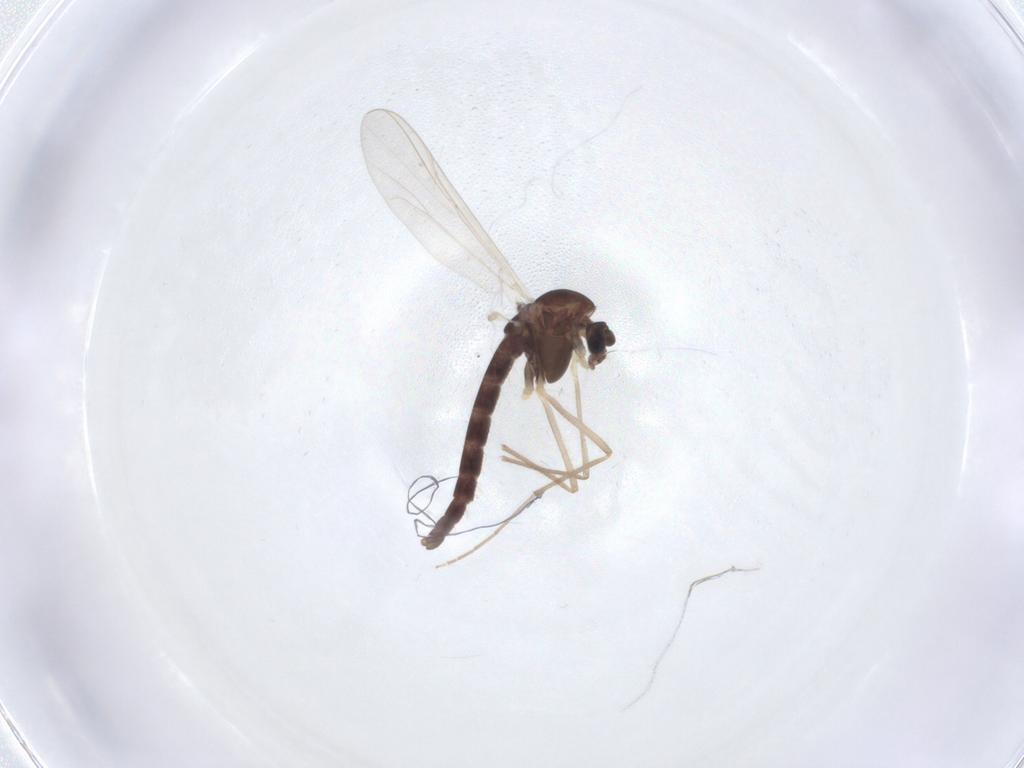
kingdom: Animalia
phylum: Arthropoda
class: Insecta
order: Diptera
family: Chironomidae
